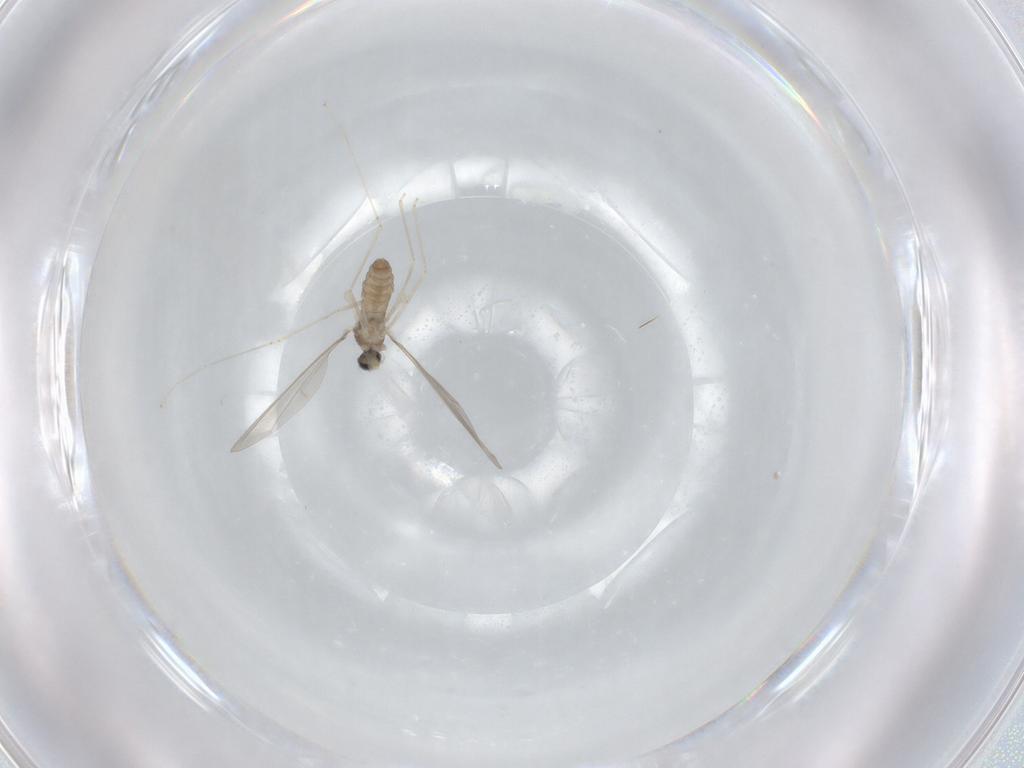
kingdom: Animalia
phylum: Arthropoda
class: Insecta
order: Diptera
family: Cecidomyiidae
